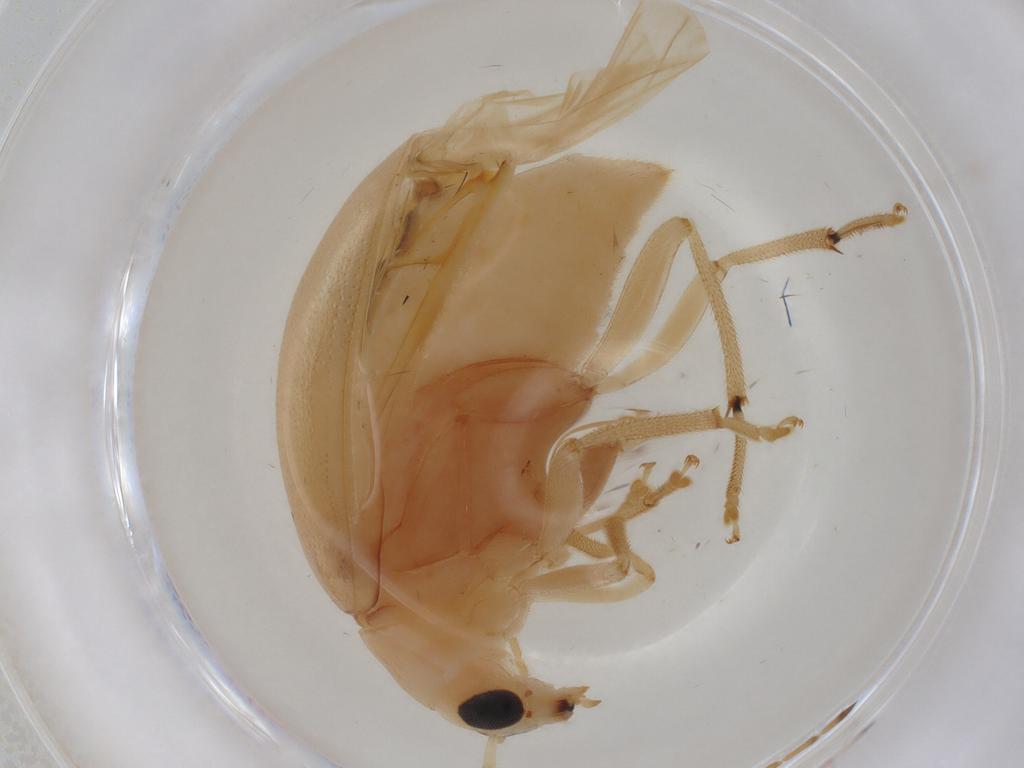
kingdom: Animalia
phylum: Arthropoda
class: Insecta
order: Coleoptera
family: Chrysomelidae
